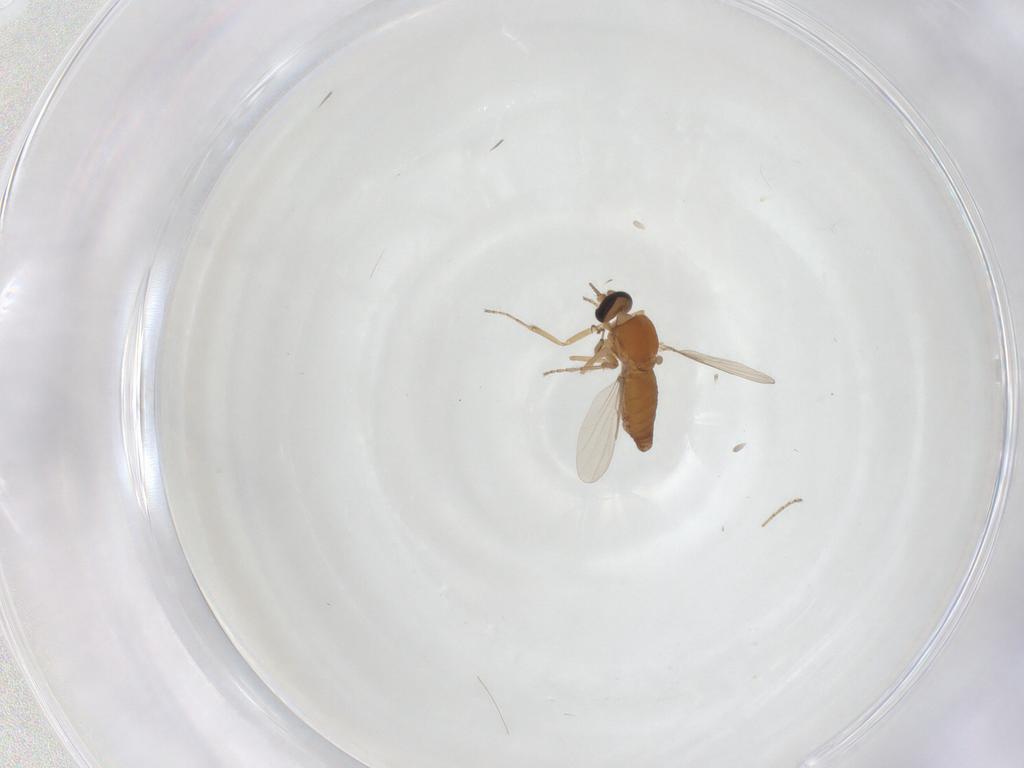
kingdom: Animalia
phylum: Arthropoda
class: Insecta
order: Diptera
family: Ceratopogonidae
